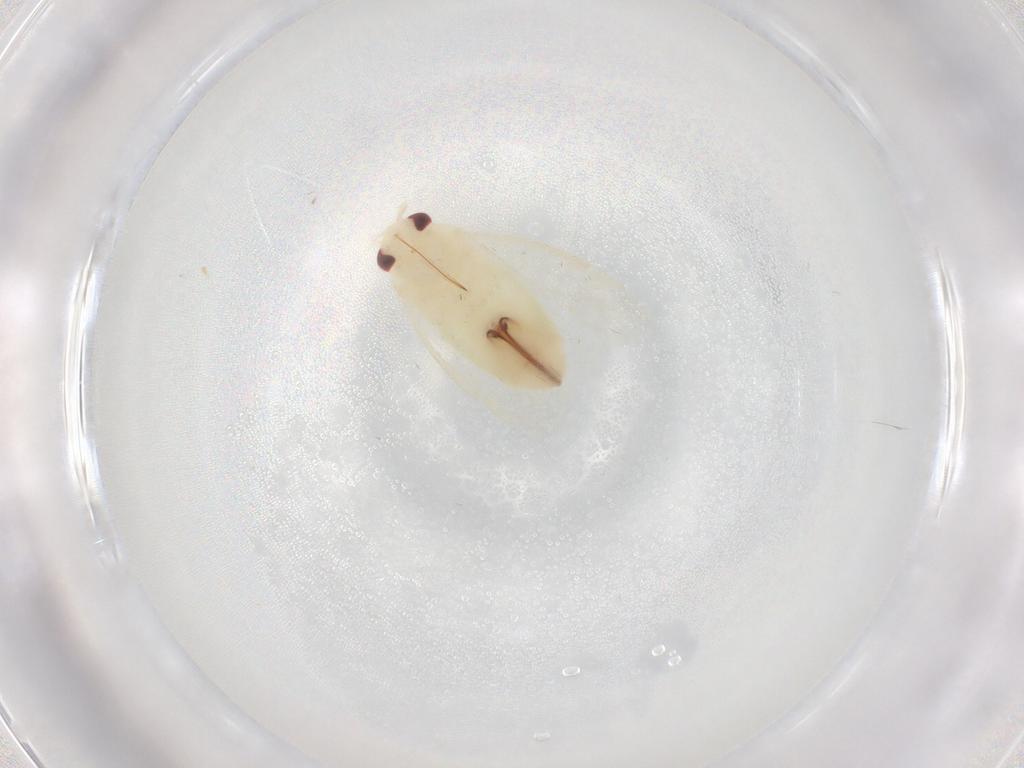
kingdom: Animalia
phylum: Arthropoda
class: Insecta
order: Hemiptera
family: Miridae
